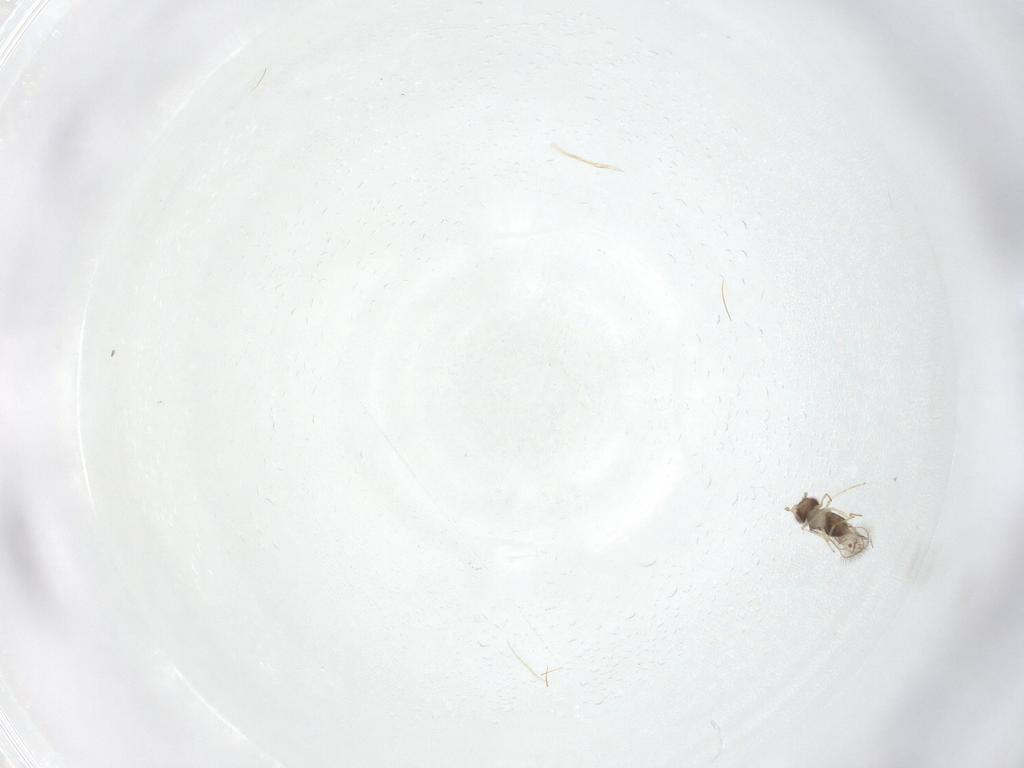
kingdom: Animalia
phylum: Arthropoda
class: Insecta
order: Hymenoptera
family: Eulophidae
